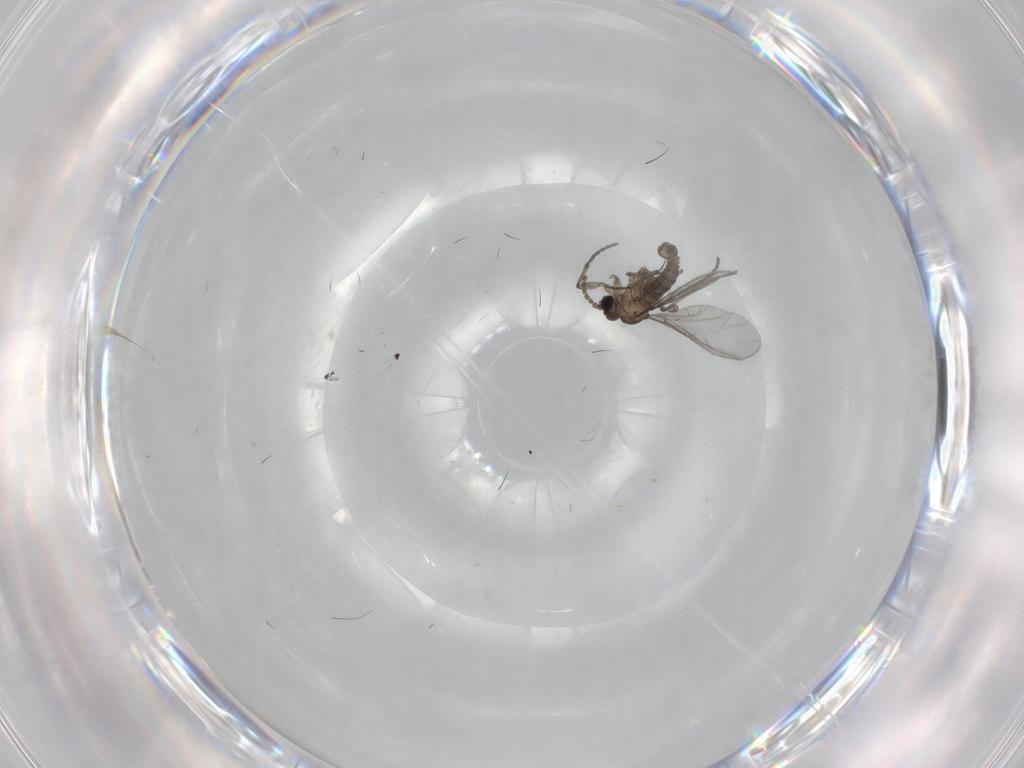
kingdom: Animalia
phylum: Arthropoda
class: Insecta
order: Diptera
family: Sciaridae
